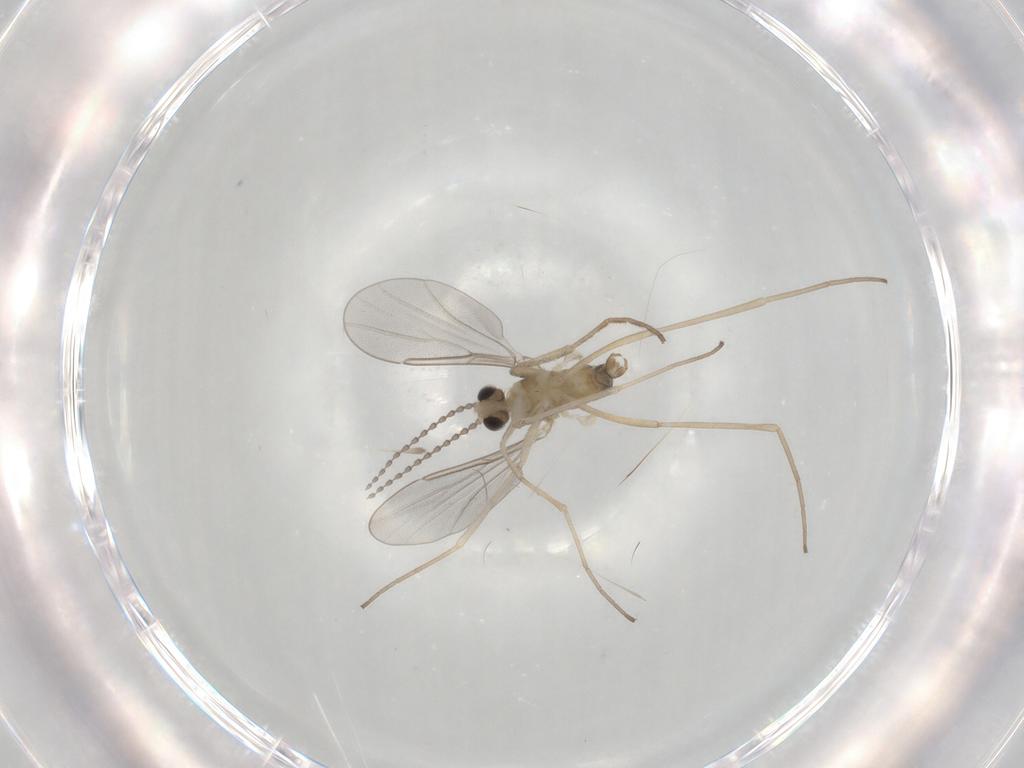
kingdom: Animalia
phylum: Arthropoda
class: Insecta
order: Diptera
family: Cecidomyiidae
